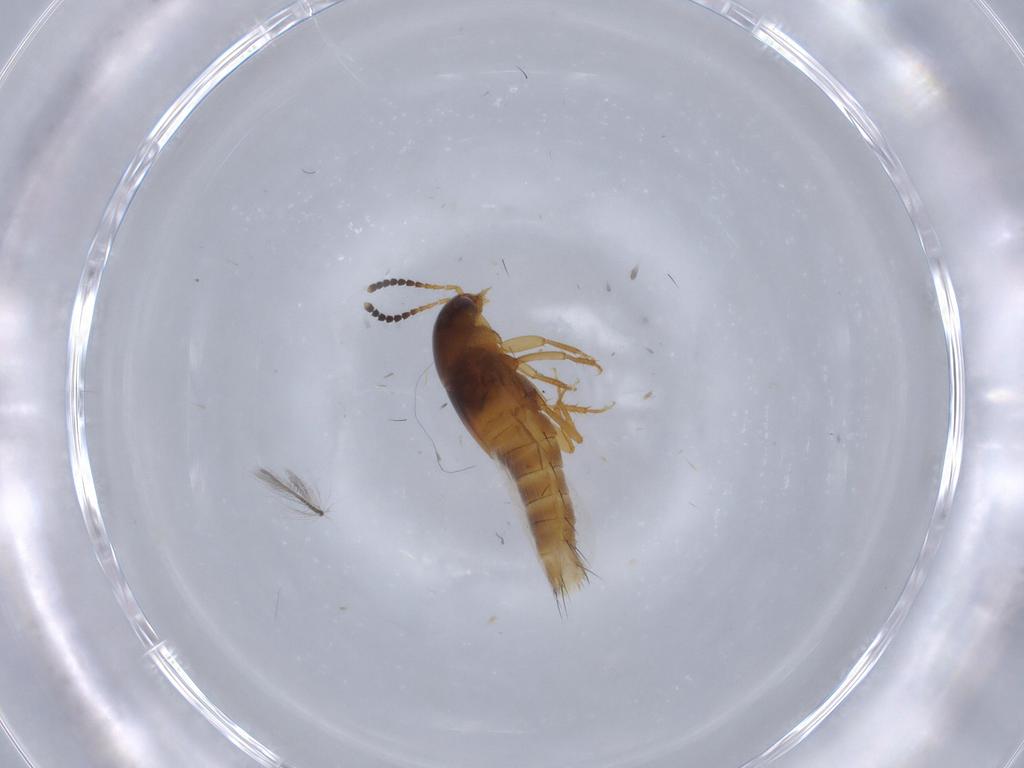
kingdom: Animalia
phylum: Arthropoda
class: Insecta
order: Coleoptera
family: Staphylinidae
